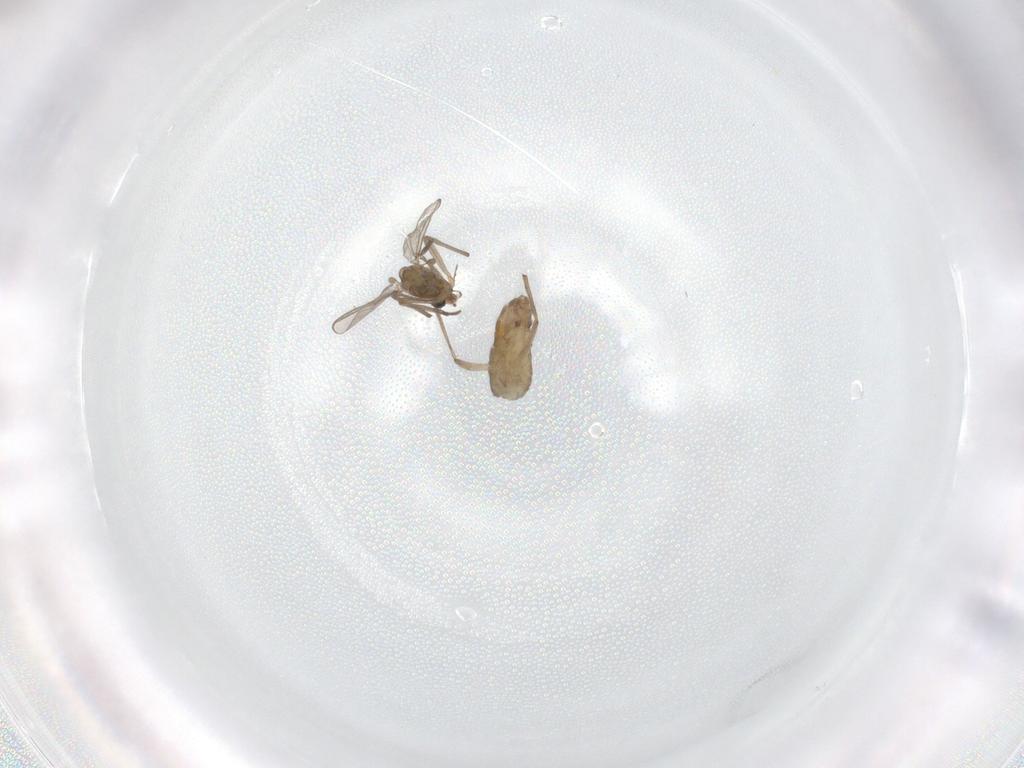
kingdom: Animalia
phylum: Arthropoda
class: Insecta
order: Diptera
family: Chironomidae
